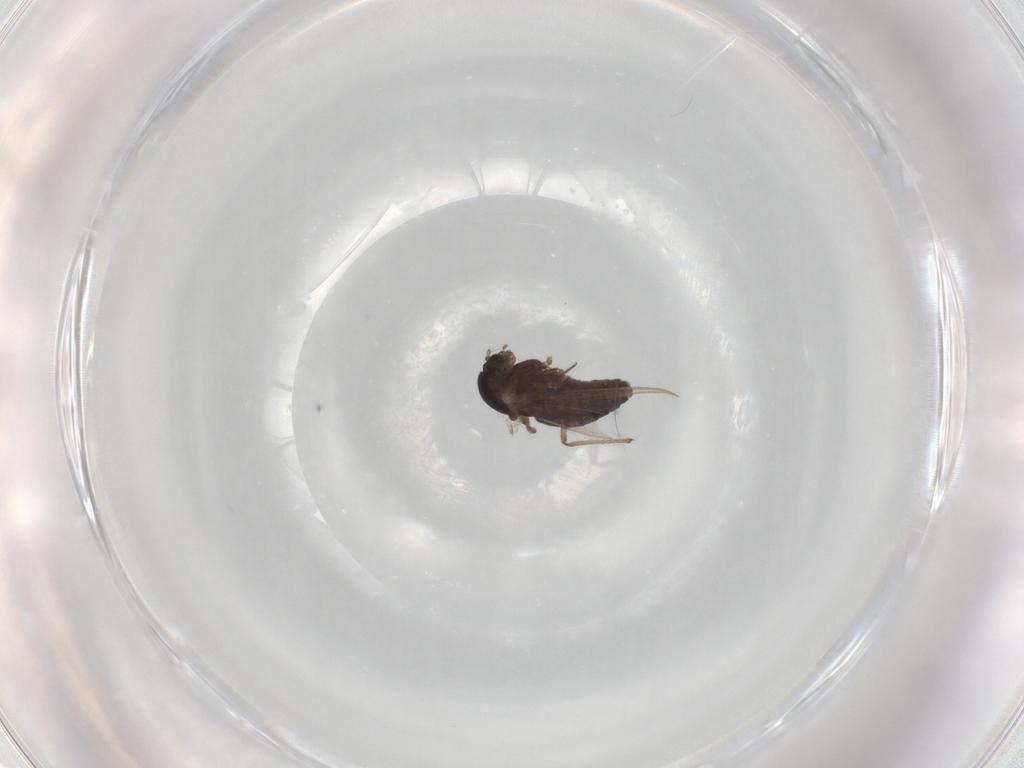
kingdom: Animalia
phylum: Arthropoda
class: Insecta
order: Diptera
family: Chironomidae
